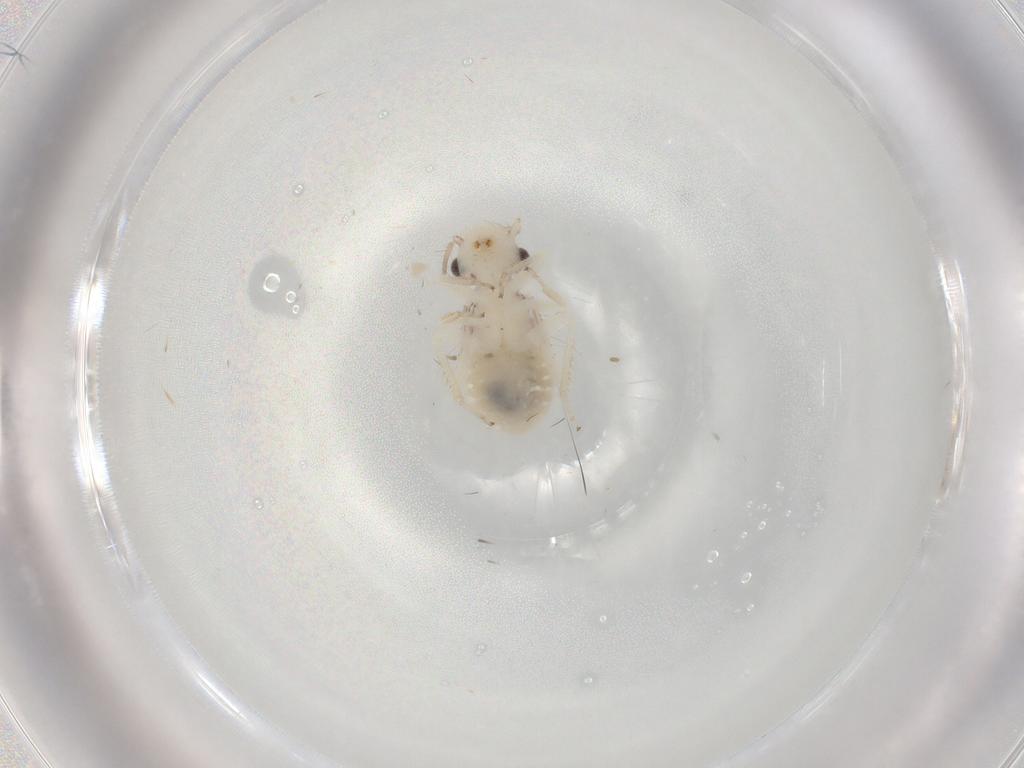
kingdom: Animalia
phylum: Arthropoda
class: Insecta
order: Psocodea
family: Pseudocaeciliidae
